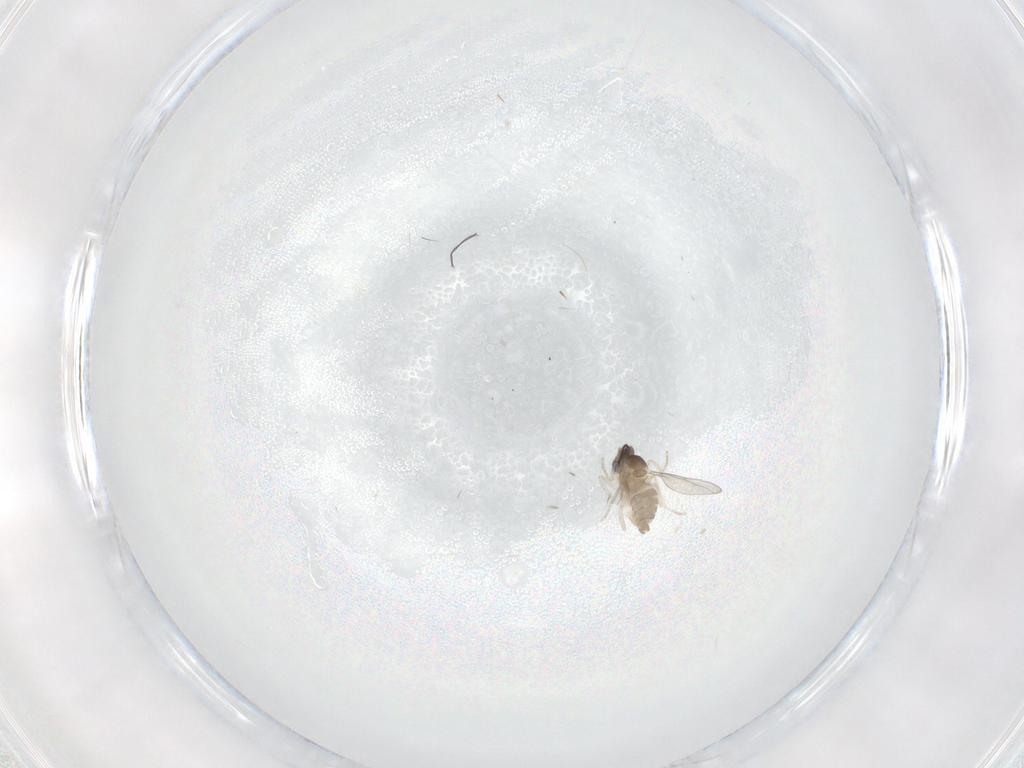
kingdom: Animalia
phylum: Arthropoda
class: Insecta
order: Diptera
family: Cecidomyiidae
